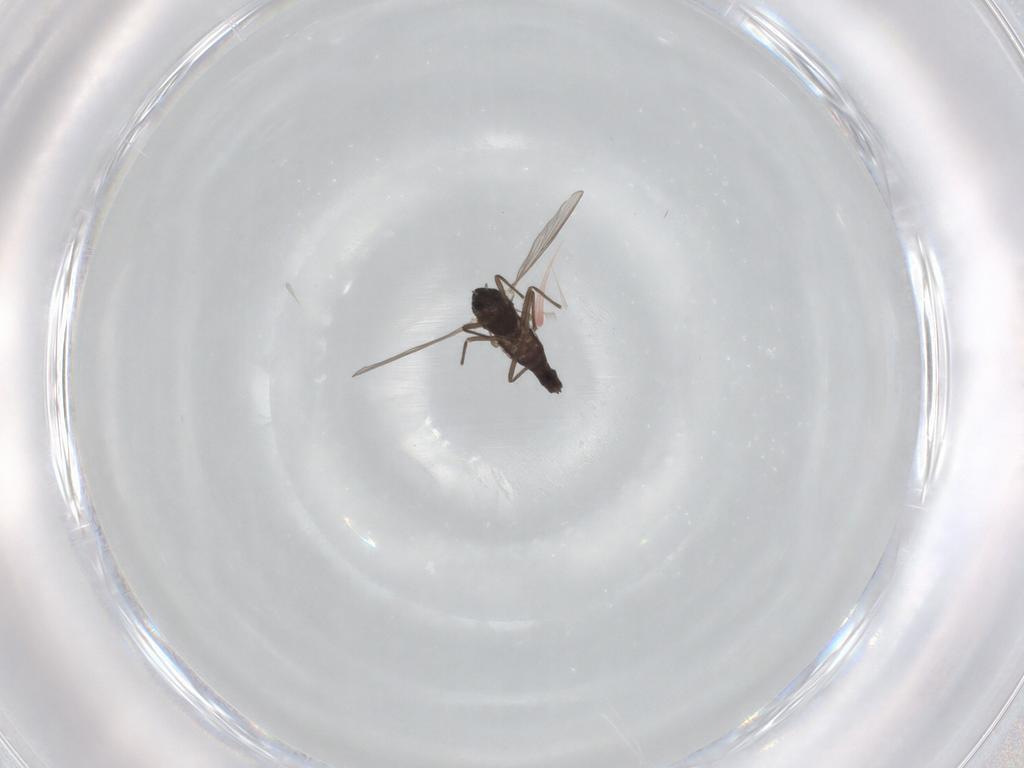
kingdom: Animalia
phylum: Arthropoda
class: Insecta
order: Diptera
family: Chironomidae
